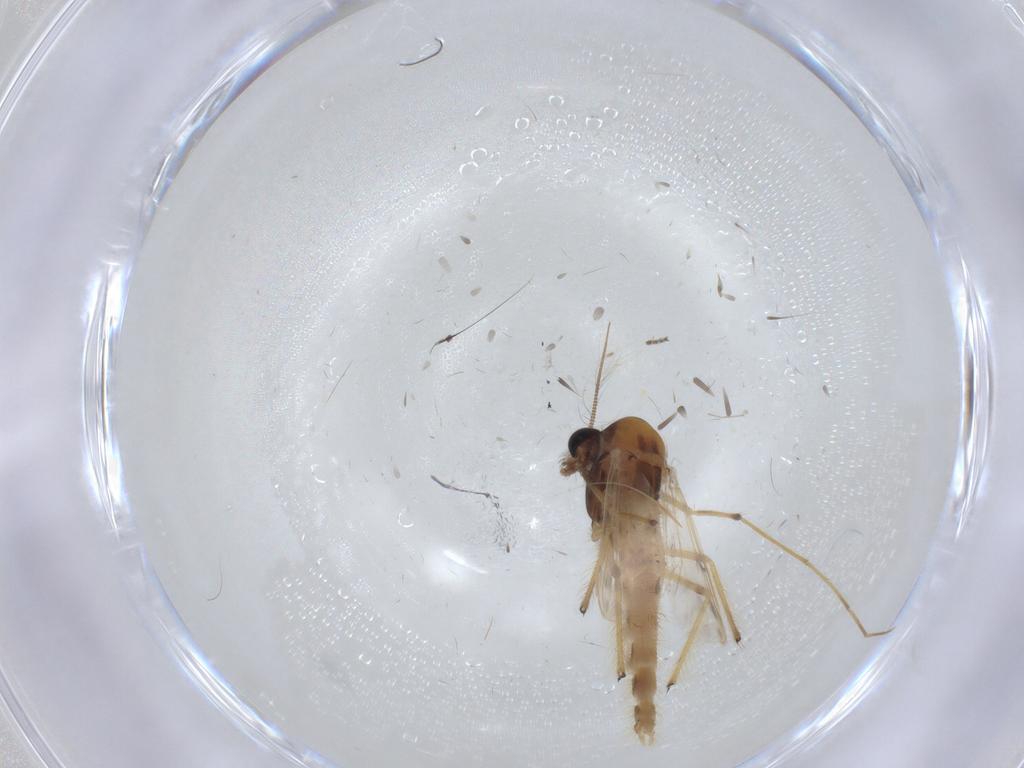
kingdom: Animalia
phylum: Arthropoda
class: Insecta
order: Diptera
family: Chironomidae
